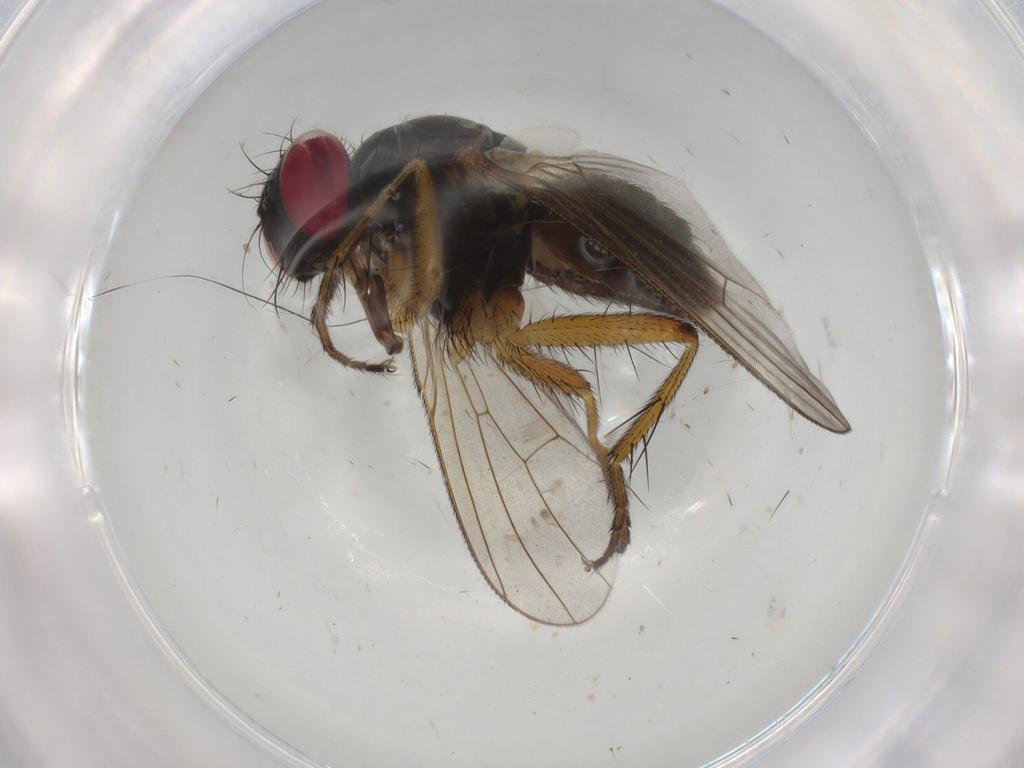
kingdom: Animalia
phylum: Arthropoda
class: Insecta
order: Diptera
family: Muscidae
